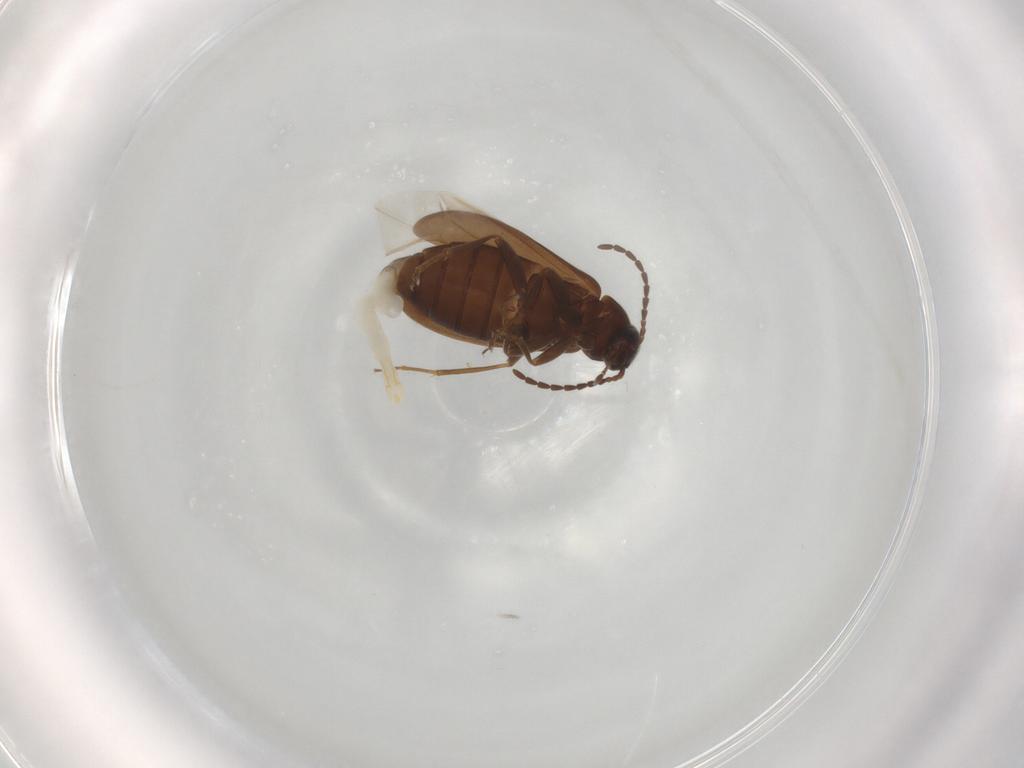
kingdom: Animalia
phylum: Arthropoda
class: Insecta
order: Coleoptera
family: Scraptiidae
